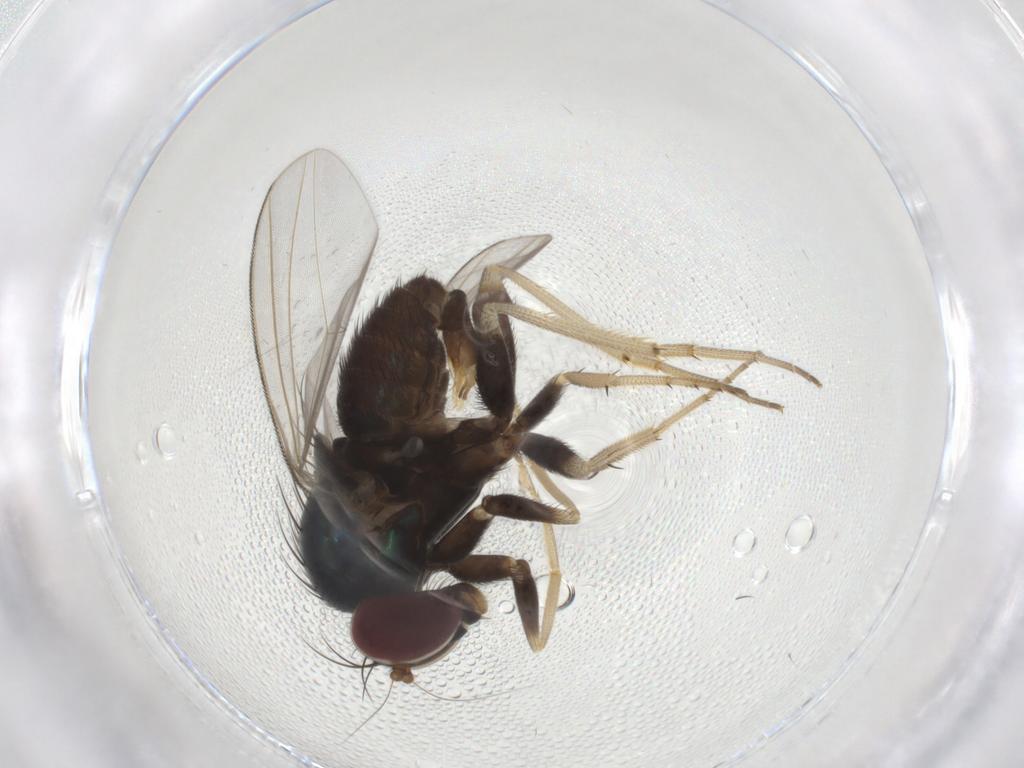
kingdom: Animalia
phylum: Arthropoda
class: Insecta
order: Diptera
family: Dolichopodidae
